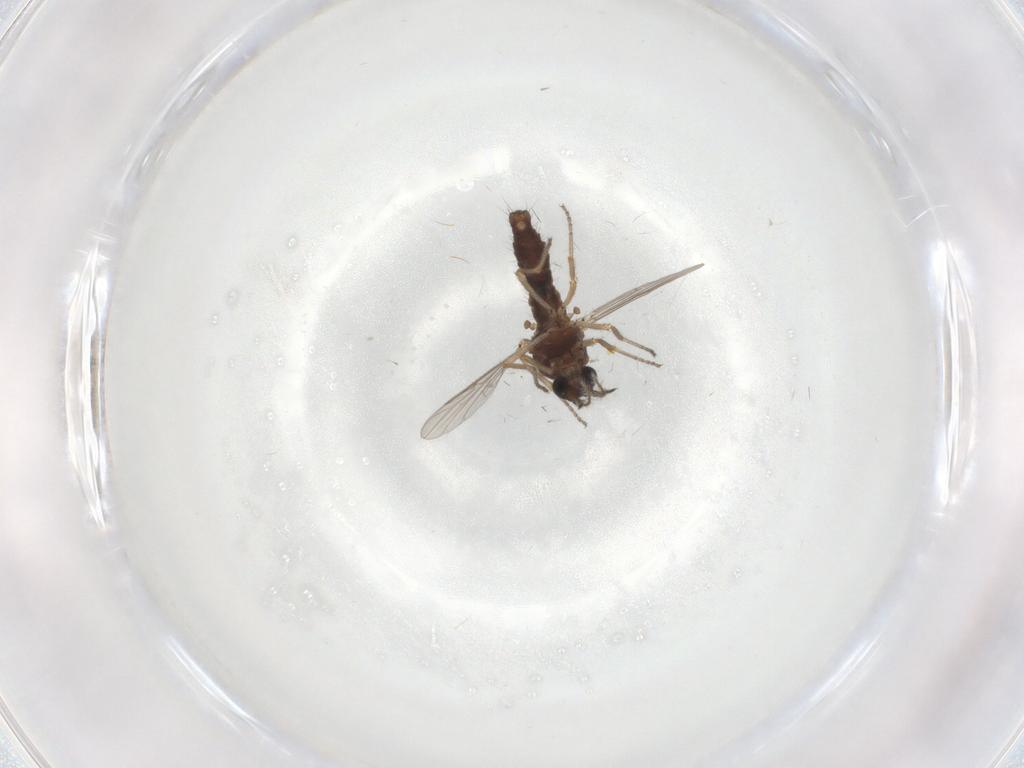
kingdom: Animalia
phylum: Arthropoda
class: Insecta
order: Diptera
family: Ceratopogonidae
